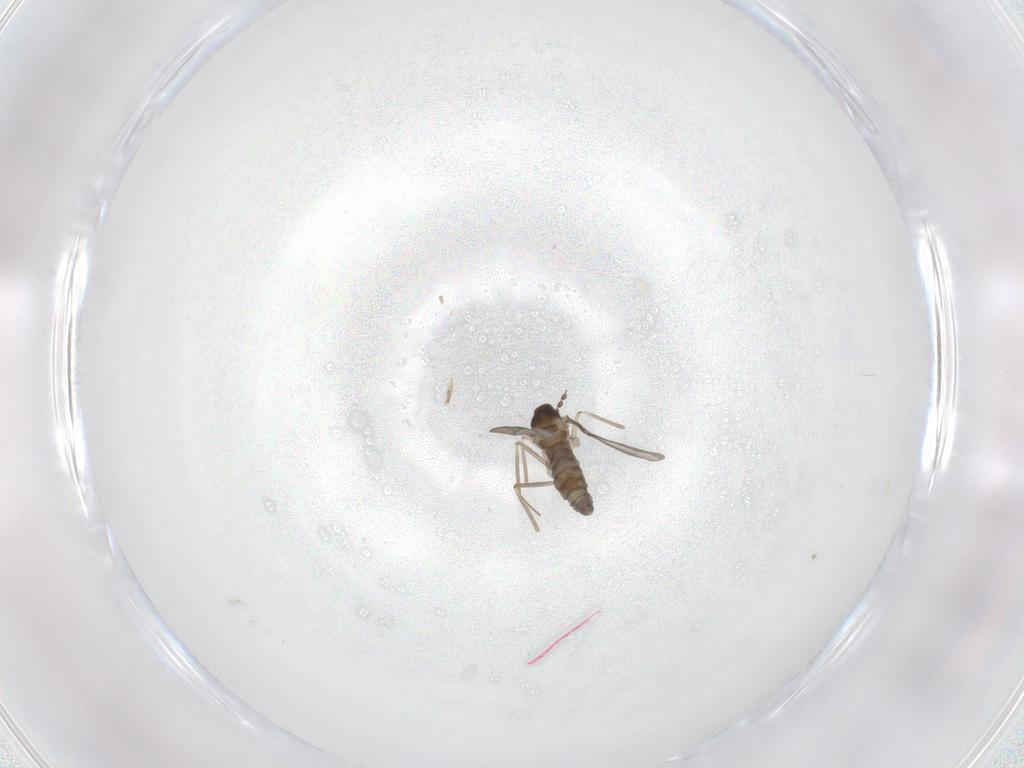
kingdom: Animalia
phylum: Arthropoda
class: Insecta
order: Diptera
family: Cecidomyiidae
